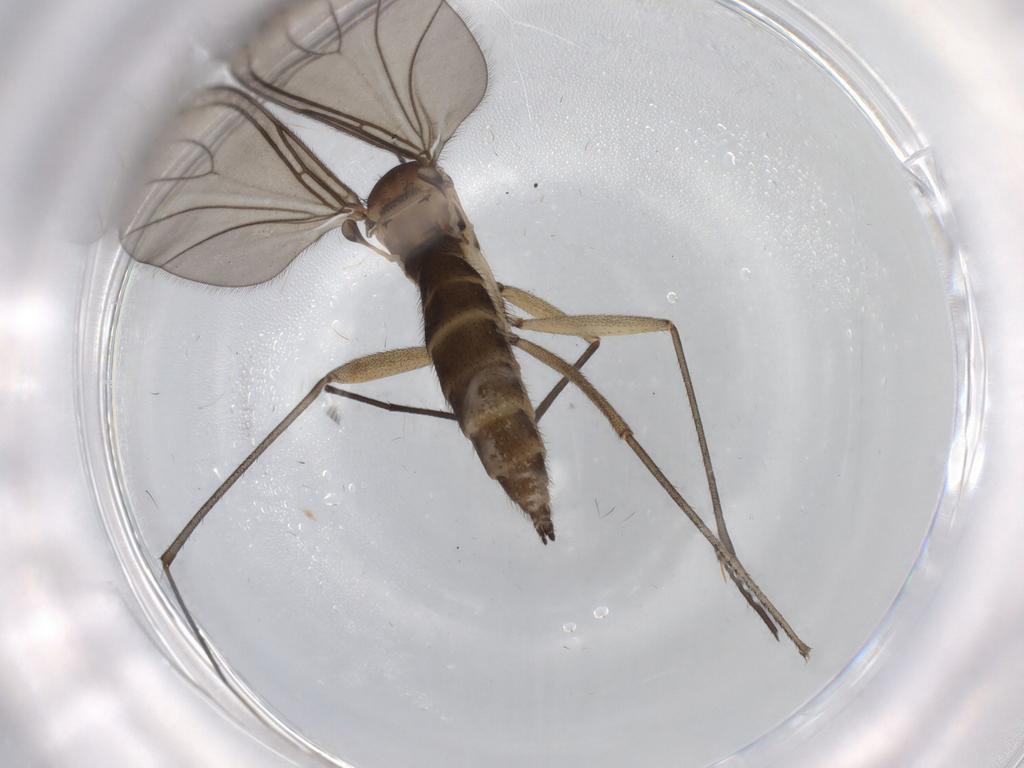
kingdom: Animalia
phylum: Arthropoda
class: Insecta
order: Diptera
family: Sciaridae
